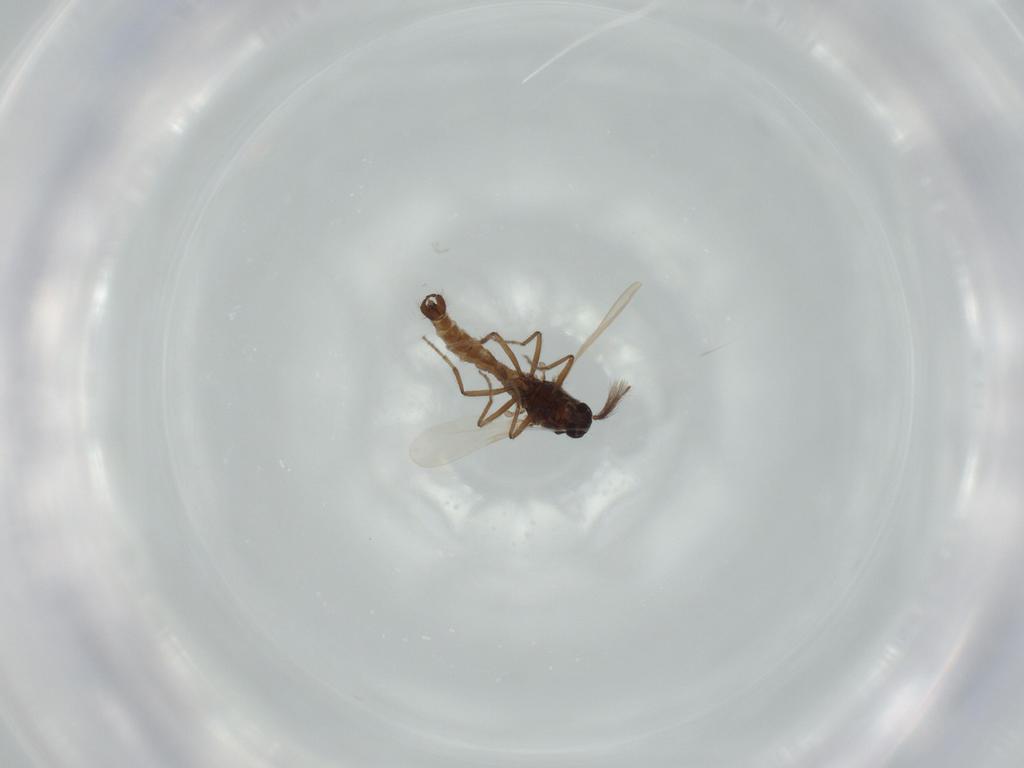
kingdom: Animalia
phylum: Arthropoda
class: Insecta
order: Diptera
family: Ceratopogonidae
